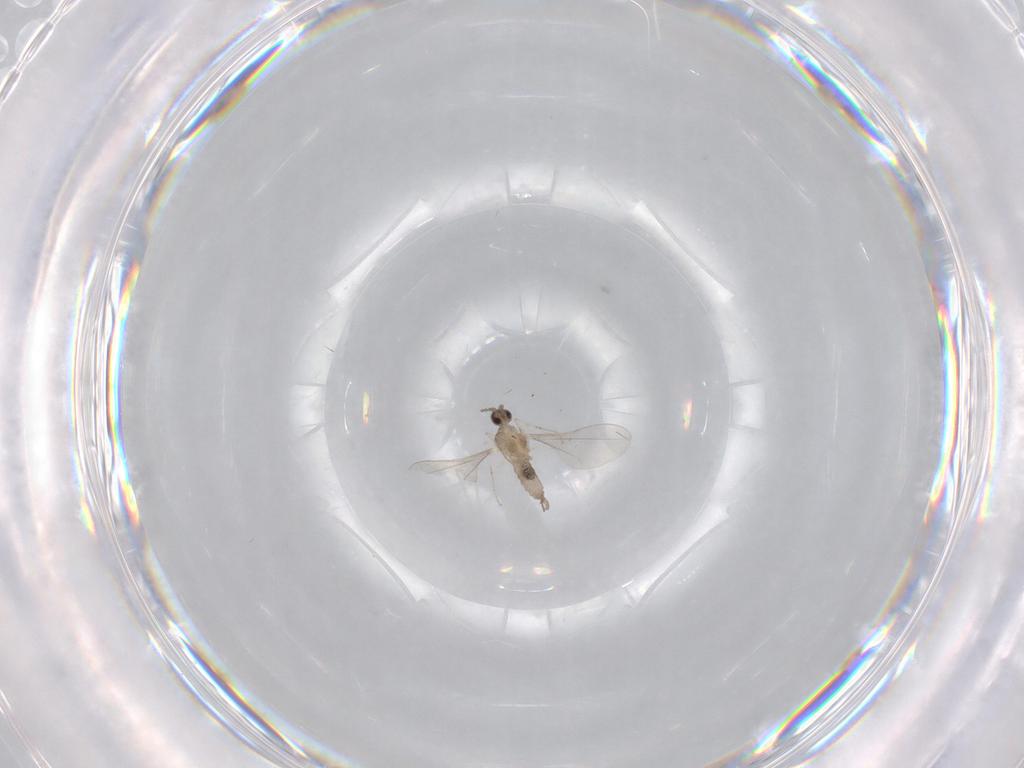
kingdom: Animalia
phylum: Arthropoda
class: Insecta
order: Diptera
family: Cecidomyiidae
